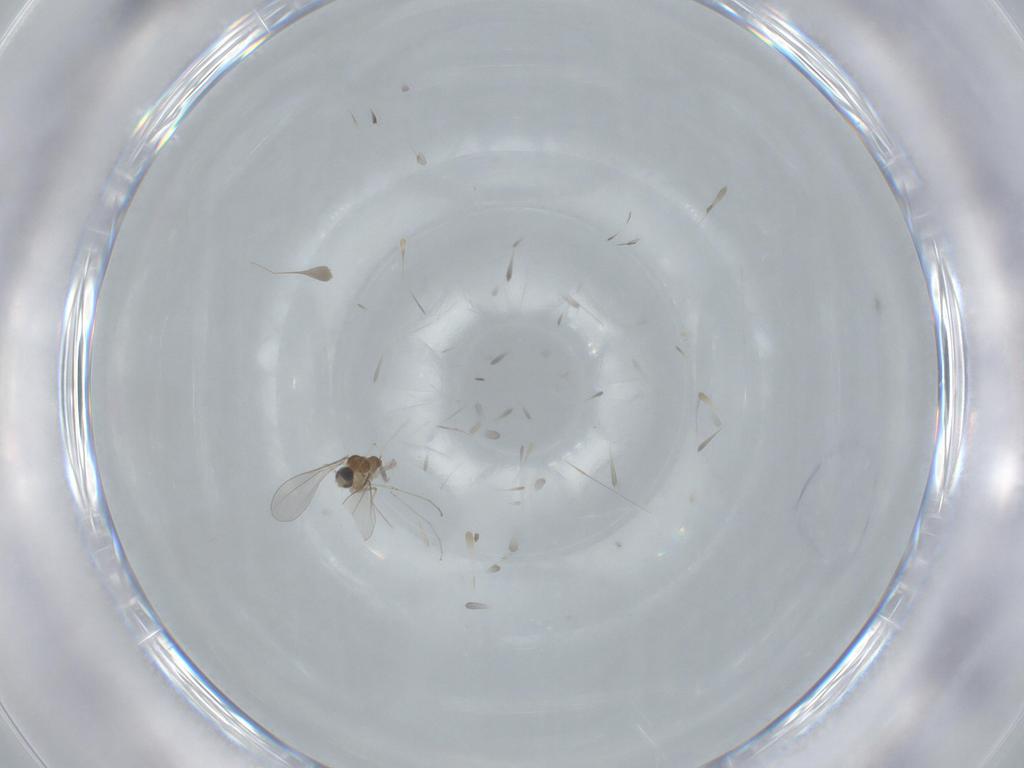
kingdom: Animalia
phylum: Arthropoda
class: Insecta
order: Diptera
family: Cecidomyiidae
